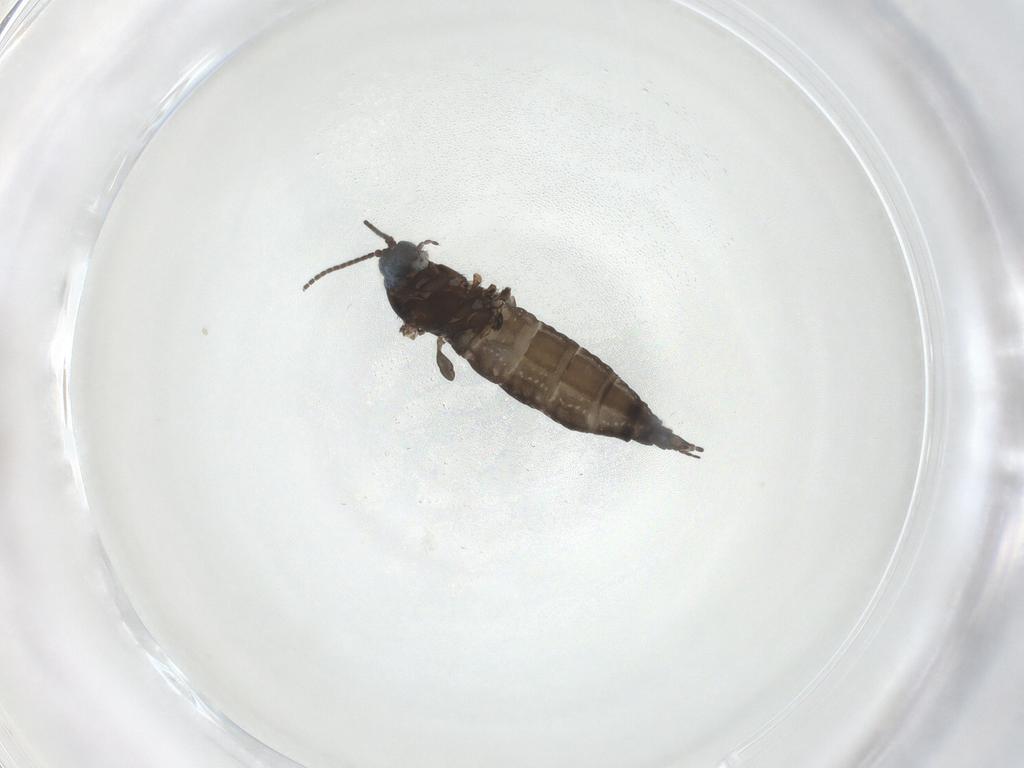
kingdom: Animalia
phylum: Arthropoda
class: Insecta
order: Diptera
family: Sciaridae
